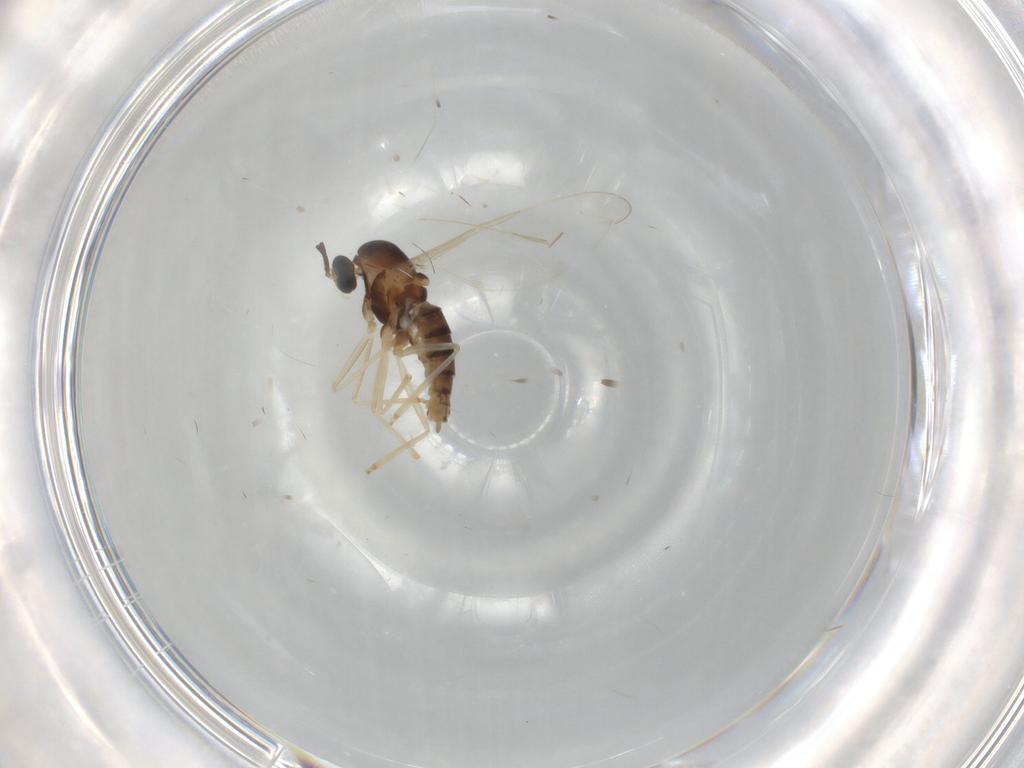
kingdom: Animalia
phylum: Arthropoda
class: Insecta
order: Diptera
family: Cecidomyiidae
